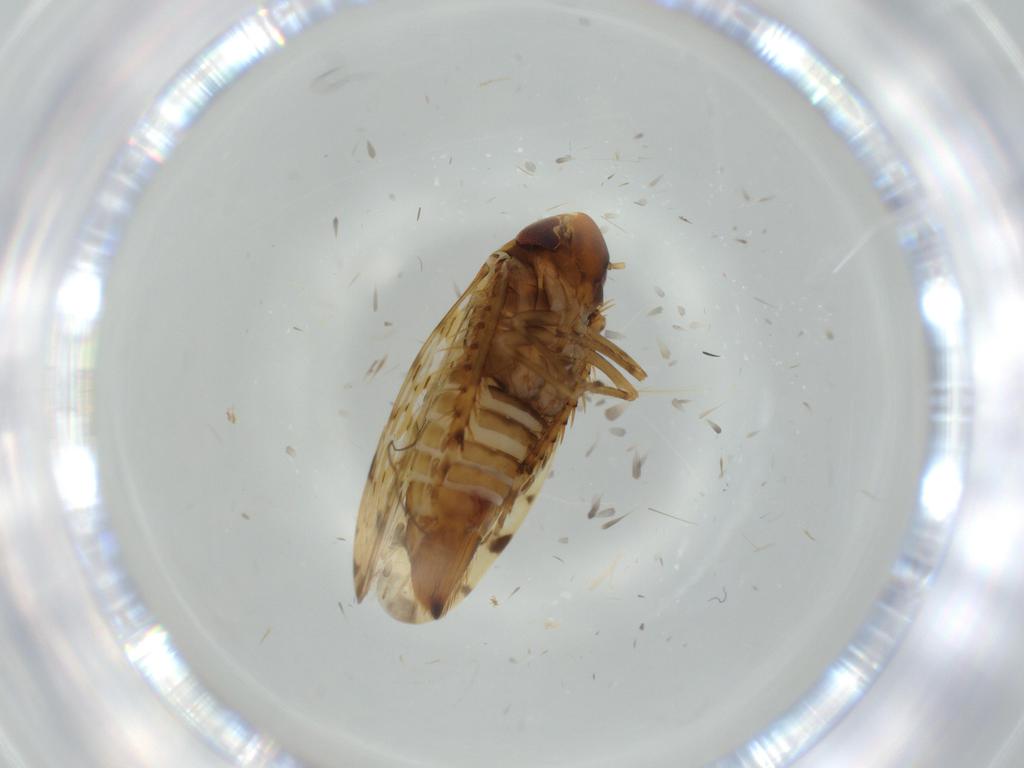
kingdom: Animalia
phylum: Arthropoda
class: Insecta
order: Hemiptera
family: Cicadellidae
